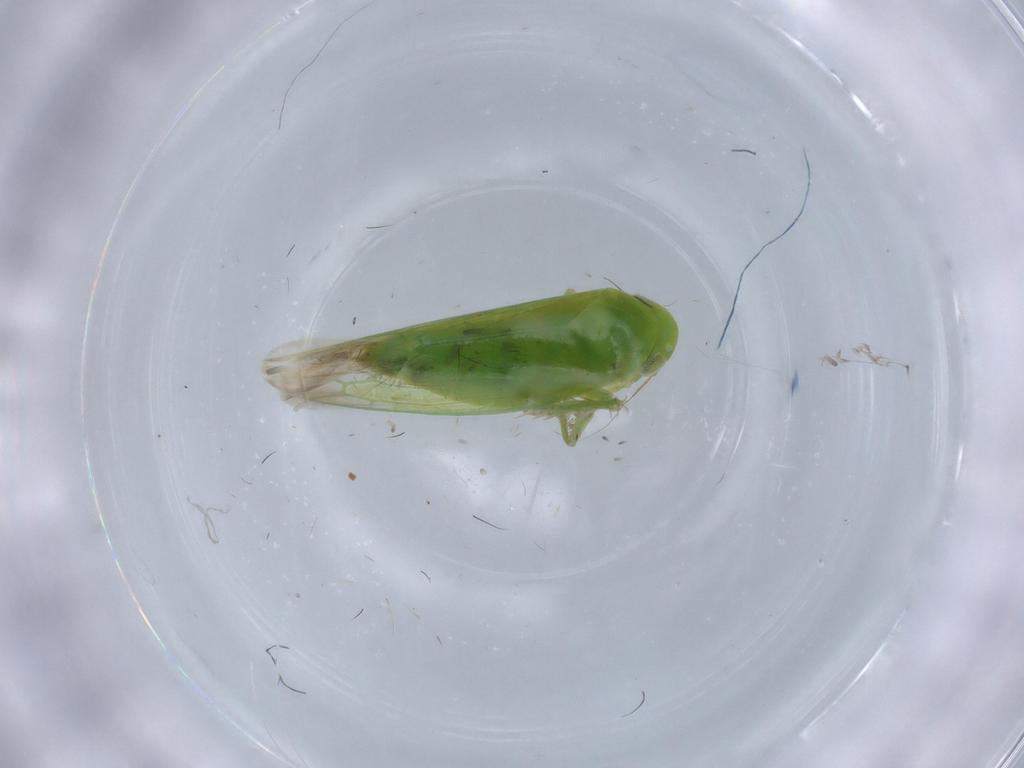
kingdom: Animalia
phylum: Arthropoda
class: Insecta
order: Hemiptera
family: Cicadellidae
